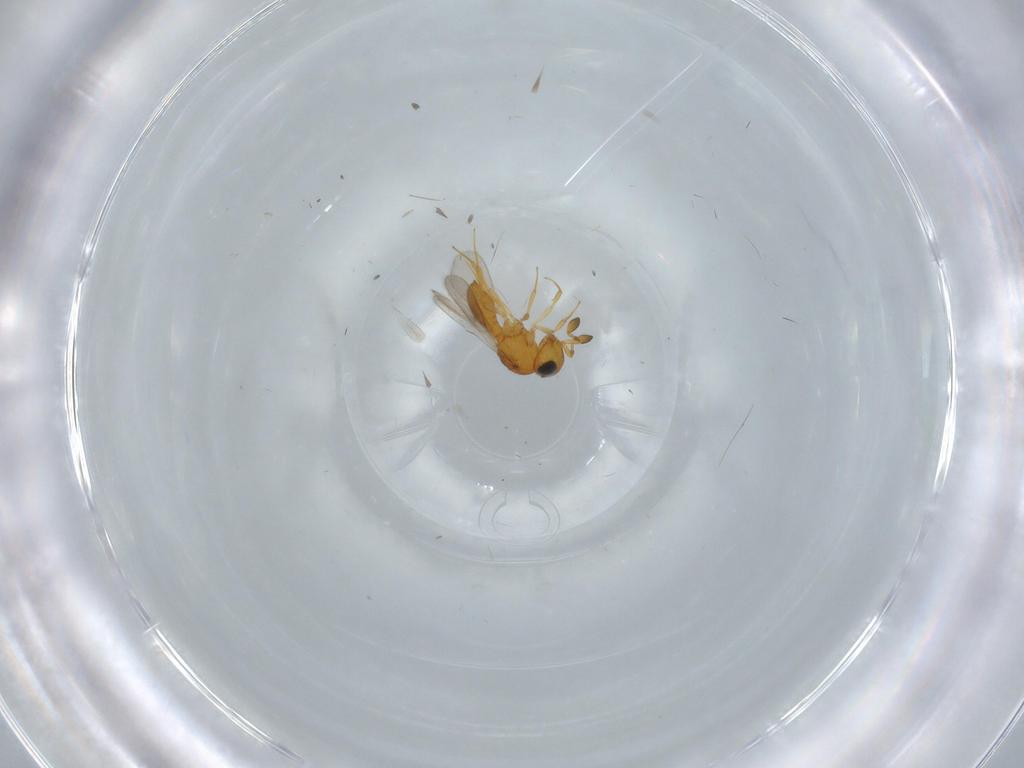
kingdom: Animalia
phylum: Arthropoda
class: Insecta
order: Hymenoptera
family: Scelionidae
